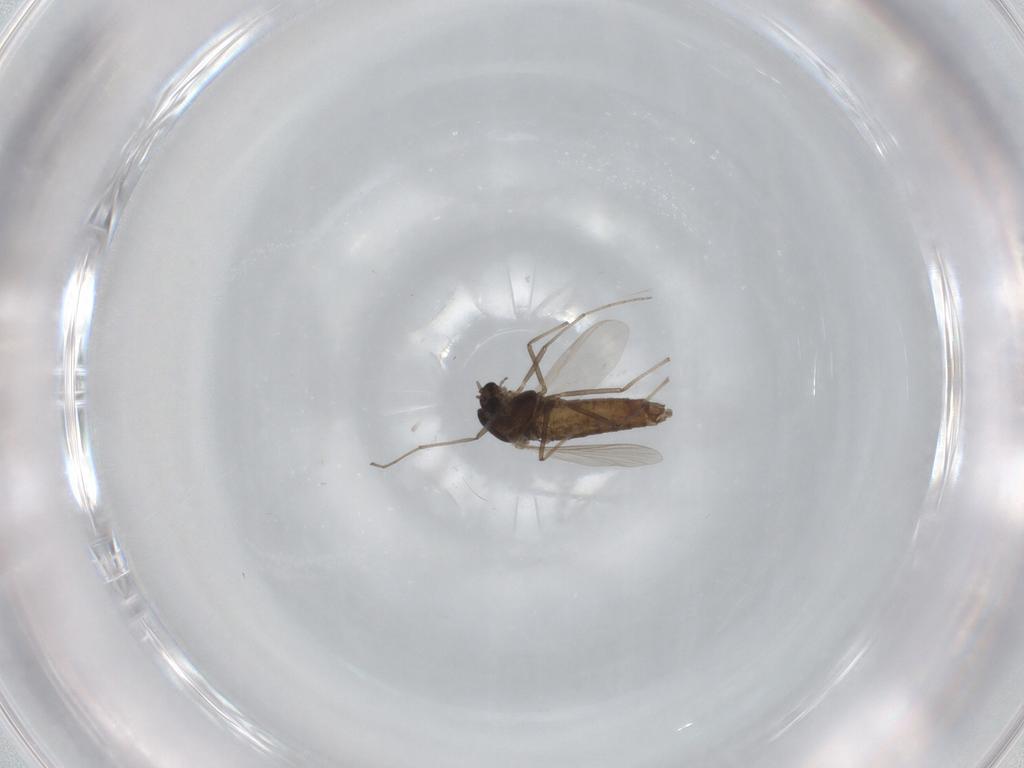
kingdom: Animalia
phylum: Arthropoda
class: Insecta
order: Diptera
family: Chironomidae
